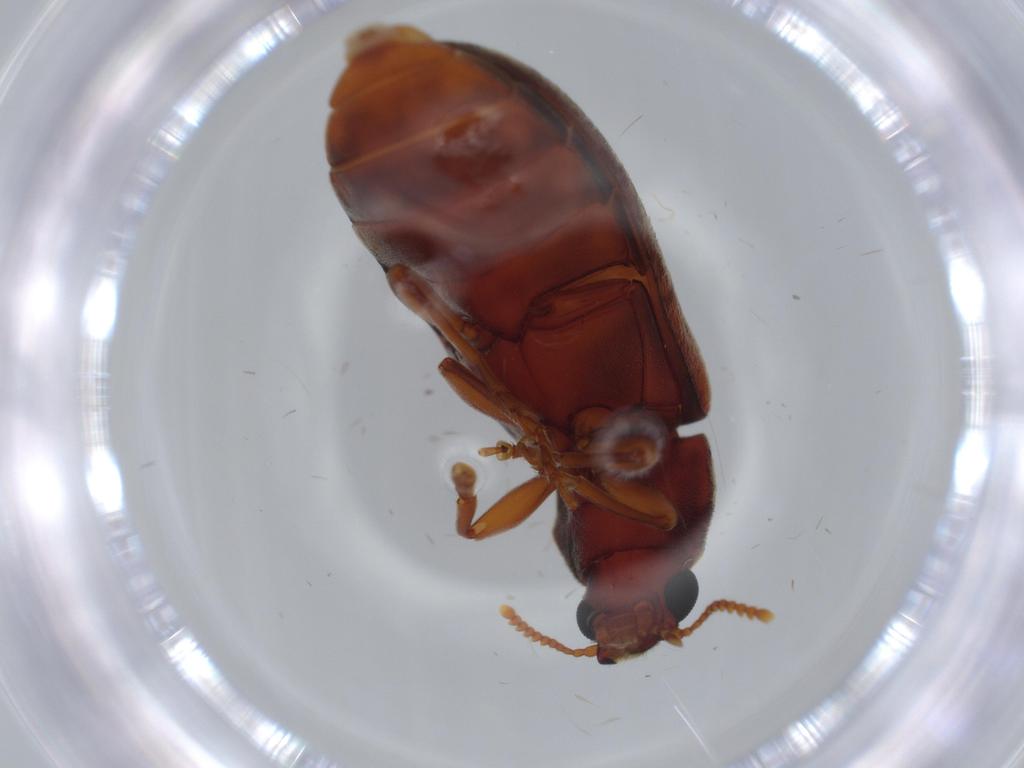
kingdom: Animalia
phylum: Arthropoda
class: Insecta
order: Coleoptera
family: Mycteridae
